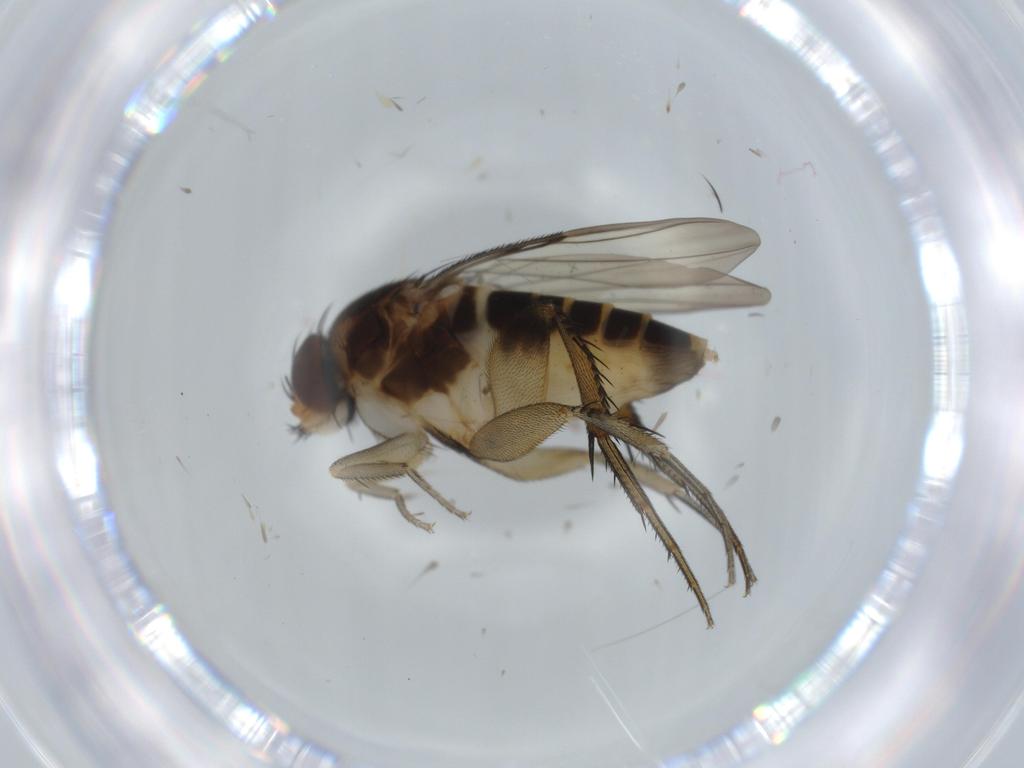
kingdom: Animalia
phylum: Arthropoda
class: Insecta
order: Diptera
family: Phoridae
